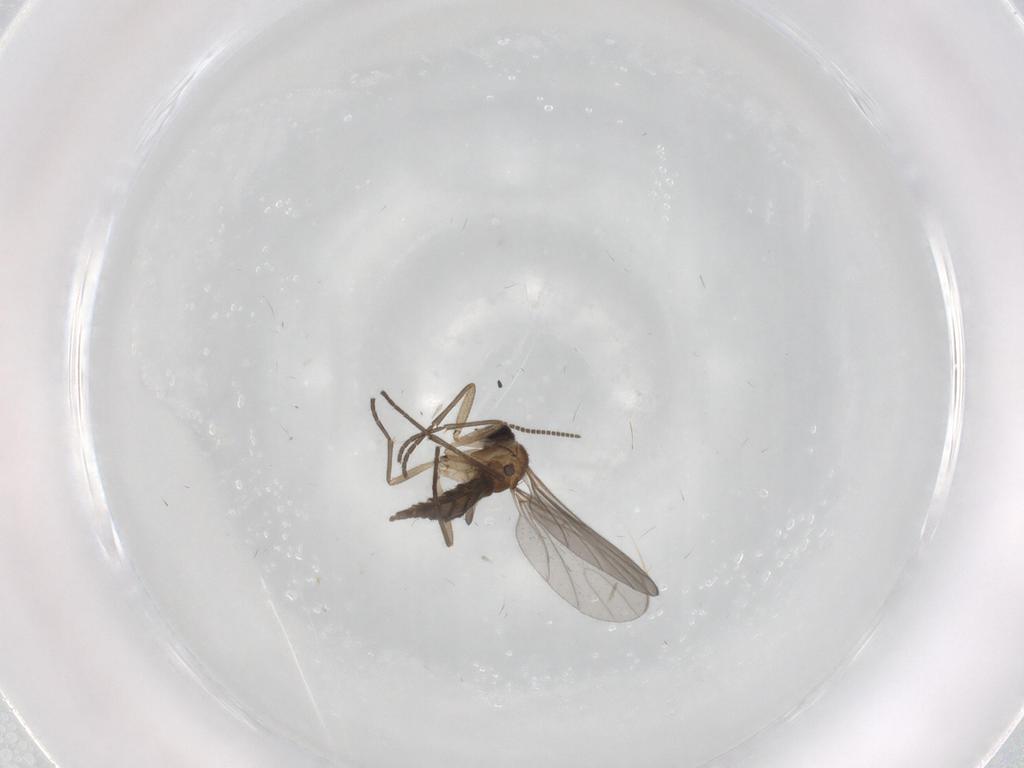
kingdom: Animalia
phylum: Arthropoda
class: Insecta
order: Diptera
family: Sciaridae
